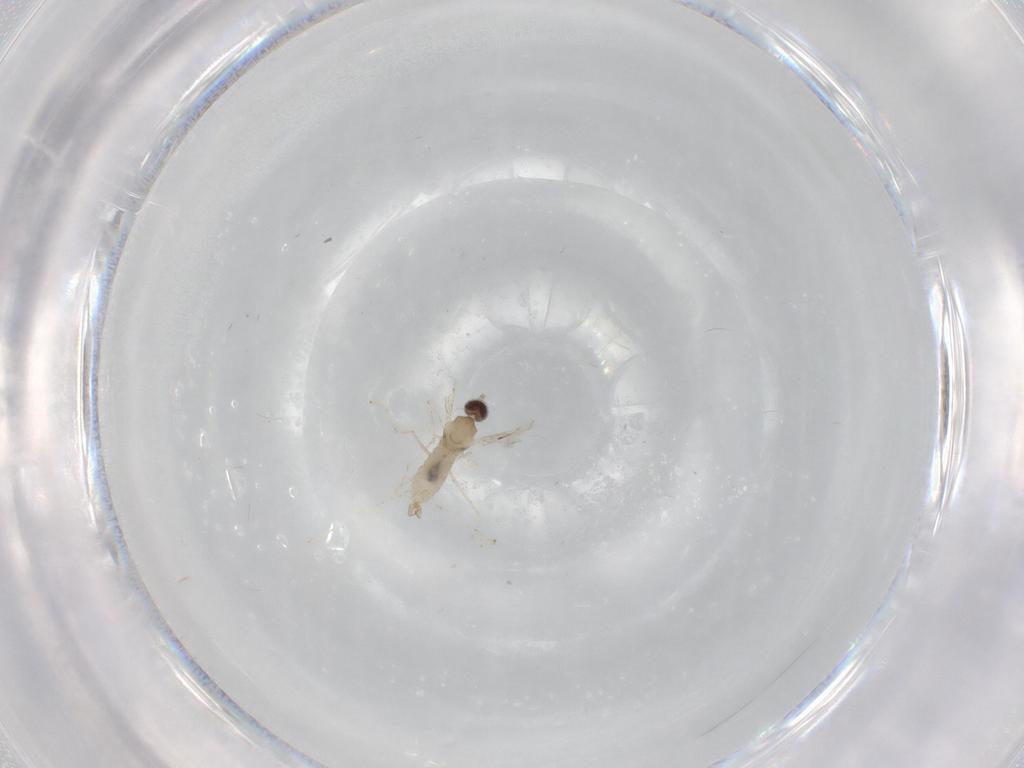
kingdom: Animalia
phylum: Arthropoda
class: Insecta
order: Diptera
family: Cecidomyiidae
